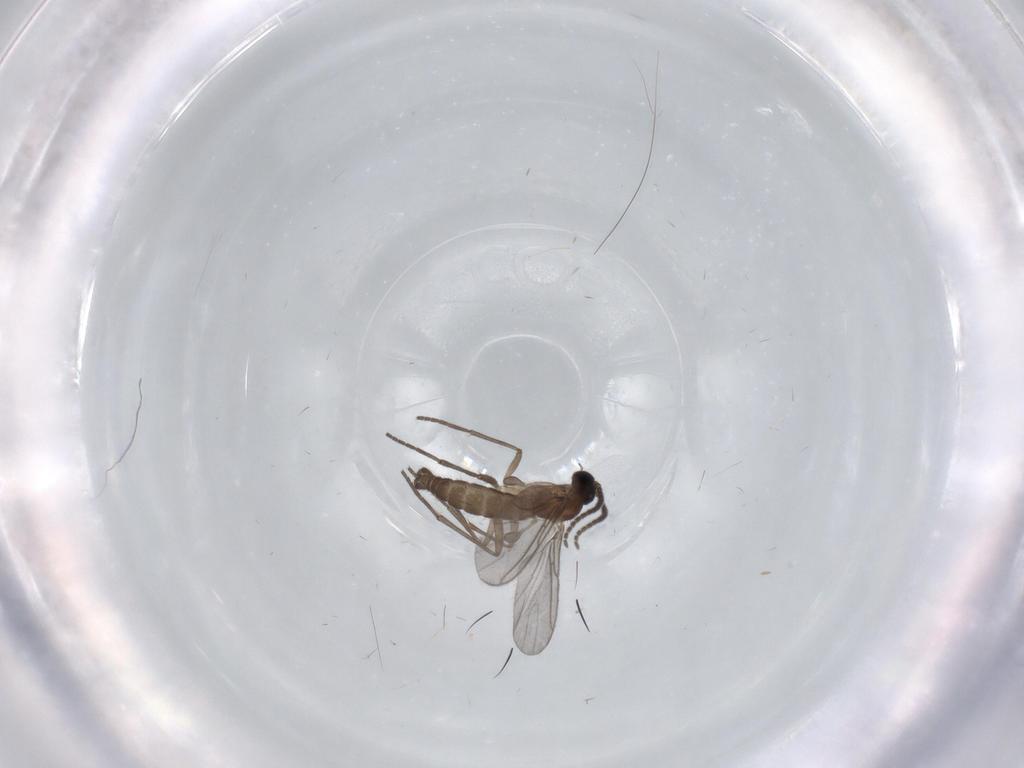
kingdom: Animalia
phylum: Arthropoda
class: Insecta
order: Diptera
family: Sciaridae
